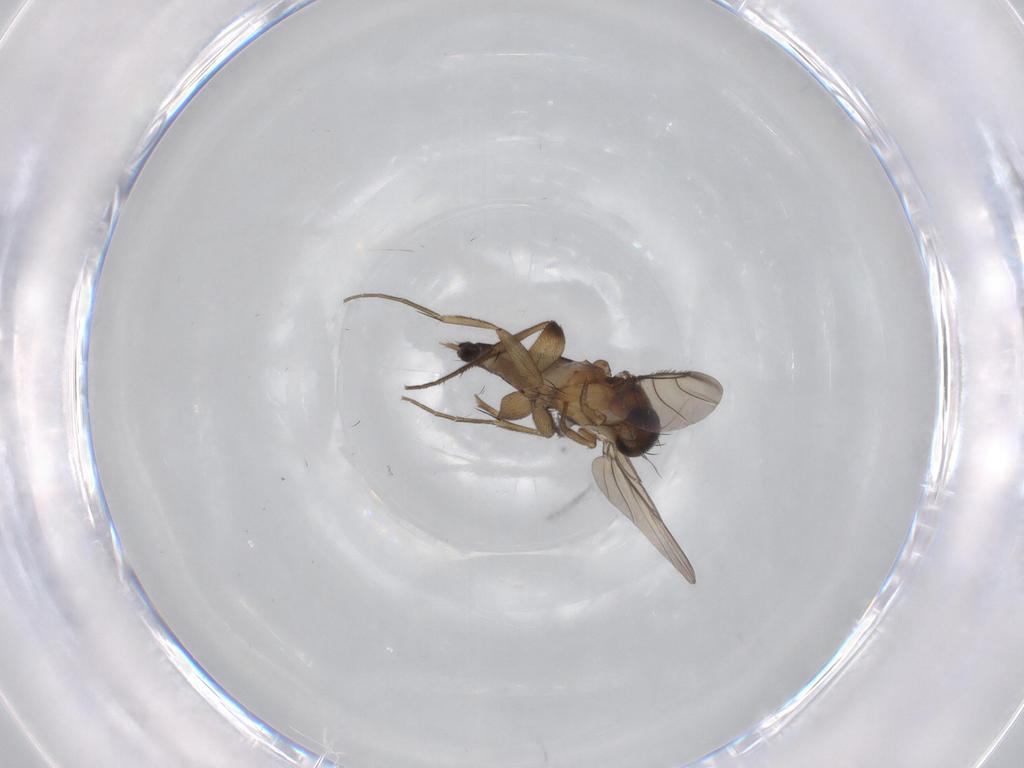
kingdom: Animalia
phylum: Arthropoda
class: Insecta
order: Diptera
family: Phoridae
